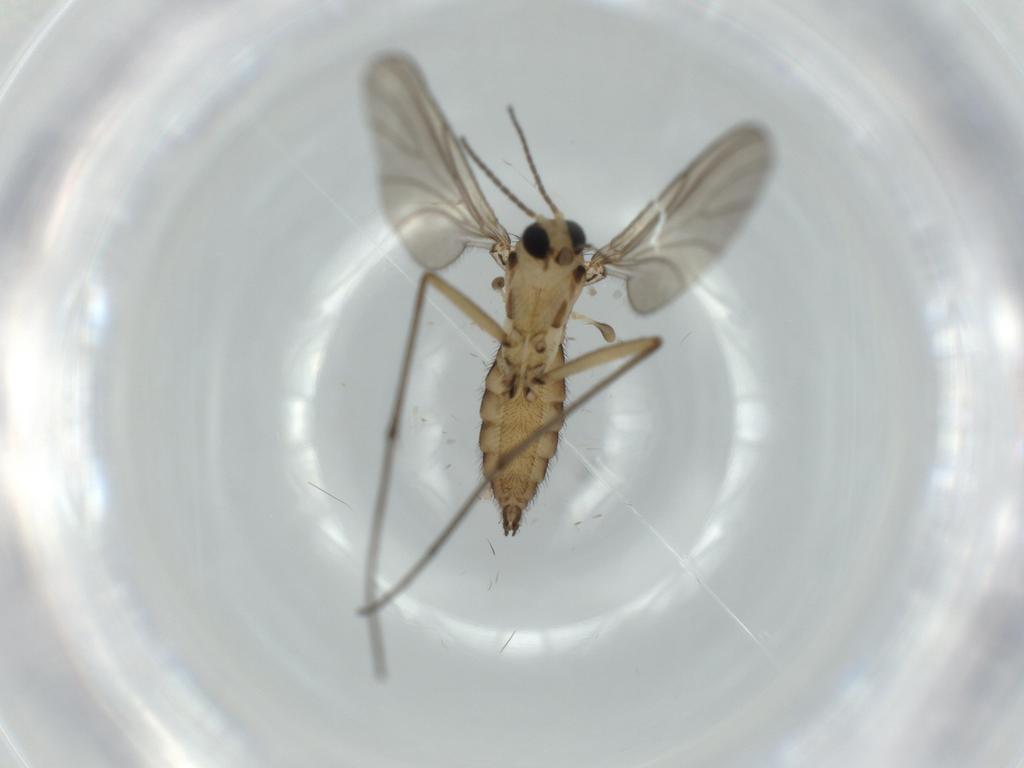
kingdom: Animalia
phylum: Arthropoda
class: Insecta
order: Diptera
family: Sciaridae
